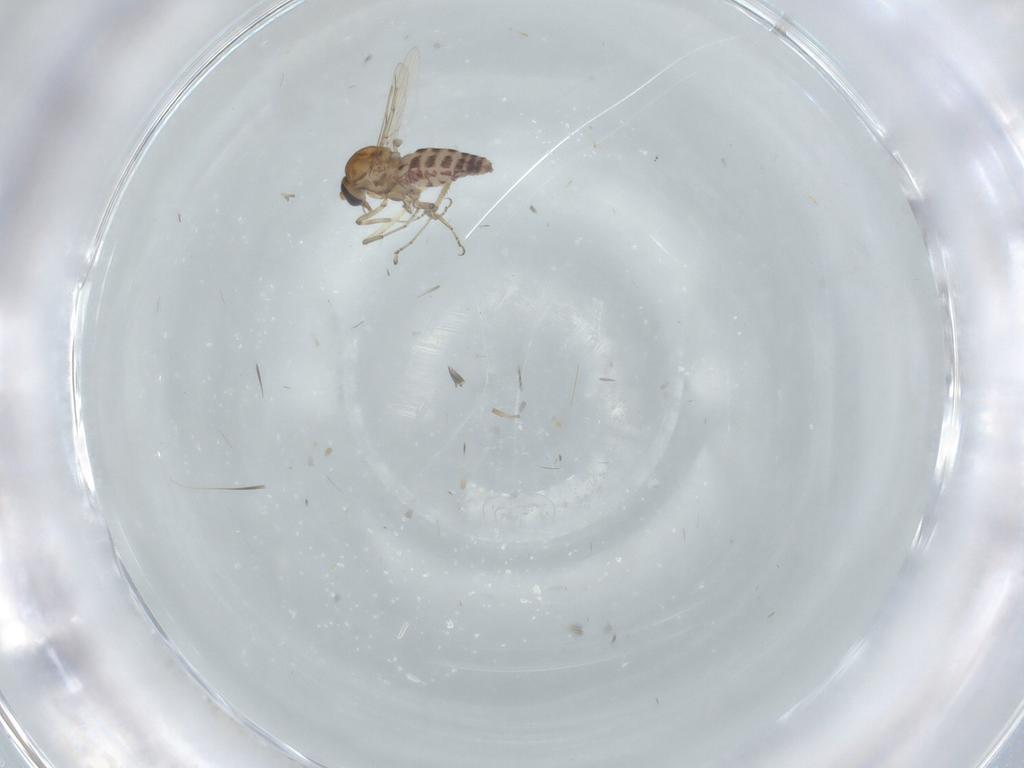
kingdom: Animalia
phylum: Arthropoda
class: Insecta
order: Diptera
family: Ceratopogonidae
